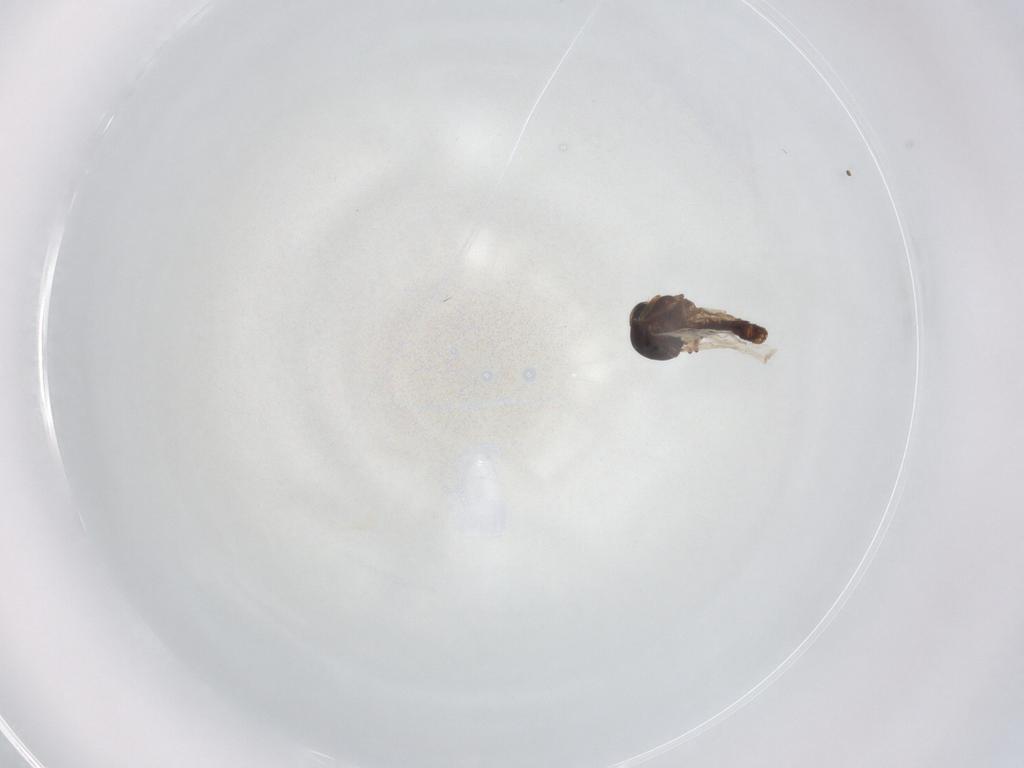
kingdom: Animalia
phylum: Arthropoda
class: Insecta
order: Diptera
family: Ceratopogonidae
